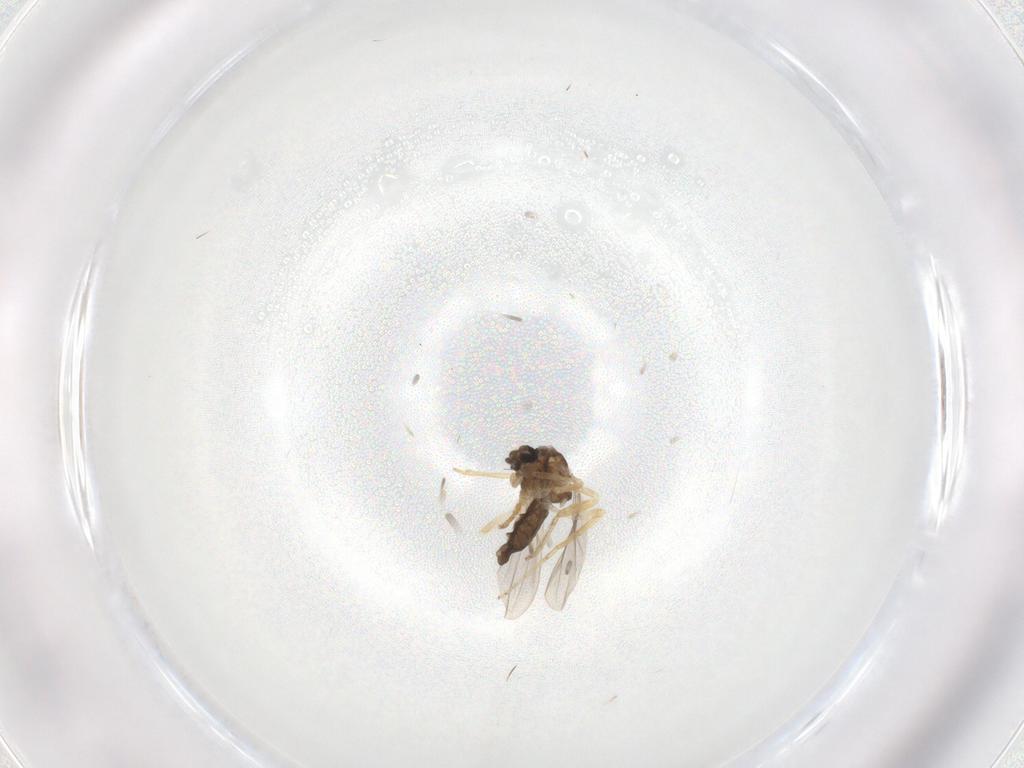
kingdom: Animalia
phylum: Arthropoda
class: Insecta
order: Diptera
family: Ceratopogonidae
